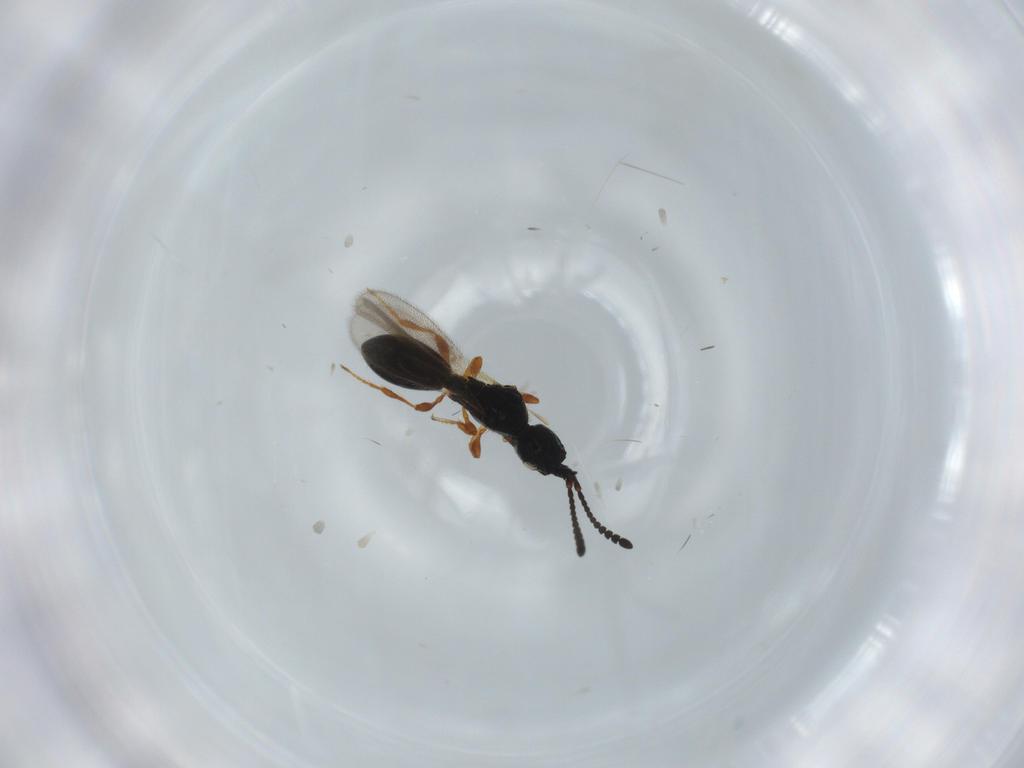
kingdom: Animalia
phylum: Arthropoda
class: Insecta
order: Hymenoptera
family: Diapriidae
